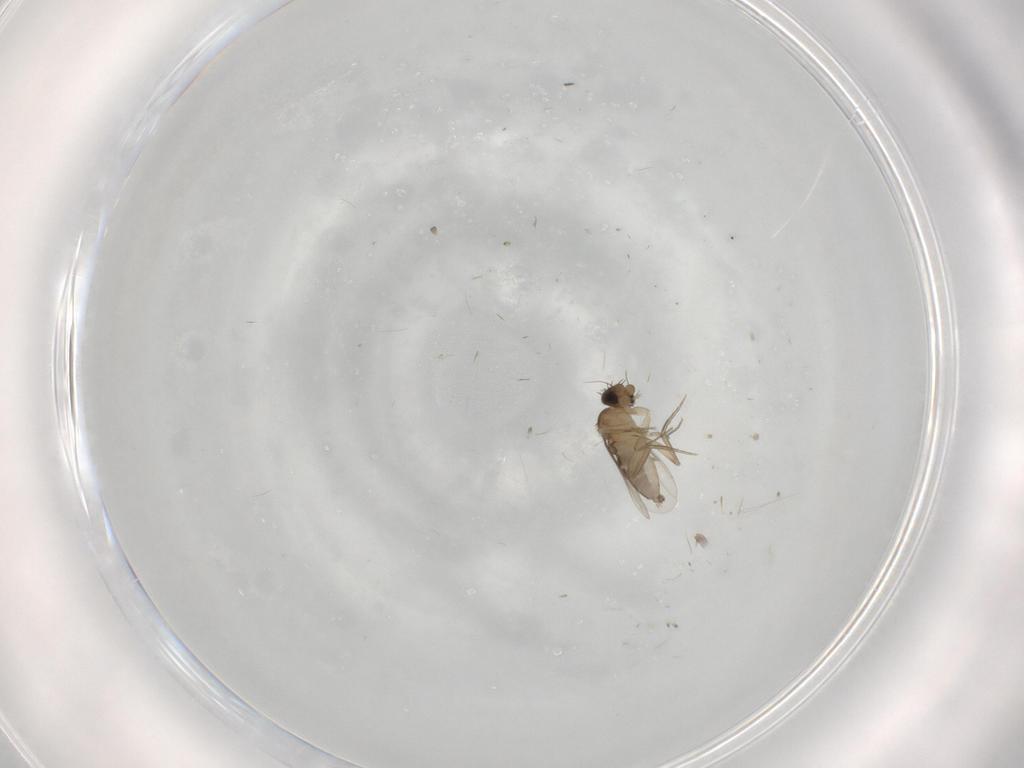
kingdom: Animalia
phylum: Arthropoda
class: Insecta
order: Diptera
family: Phoridae
